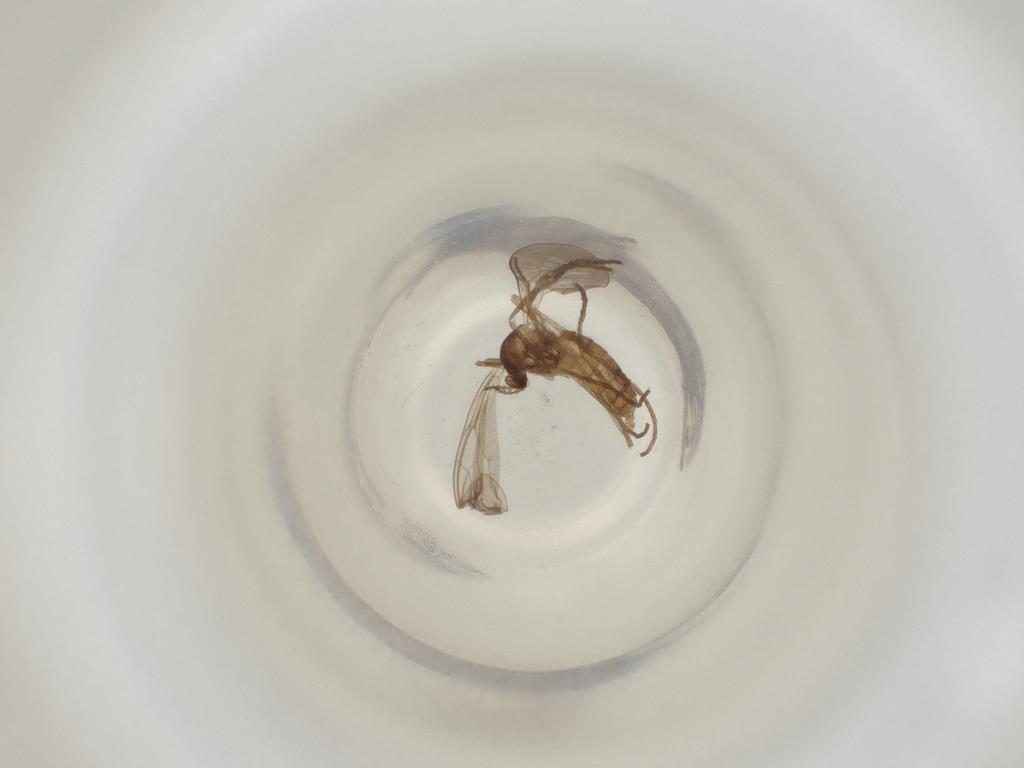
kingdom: Animalia
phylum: Arthropoda
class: Insecta
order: Diptera
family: Cecidomyiidae
